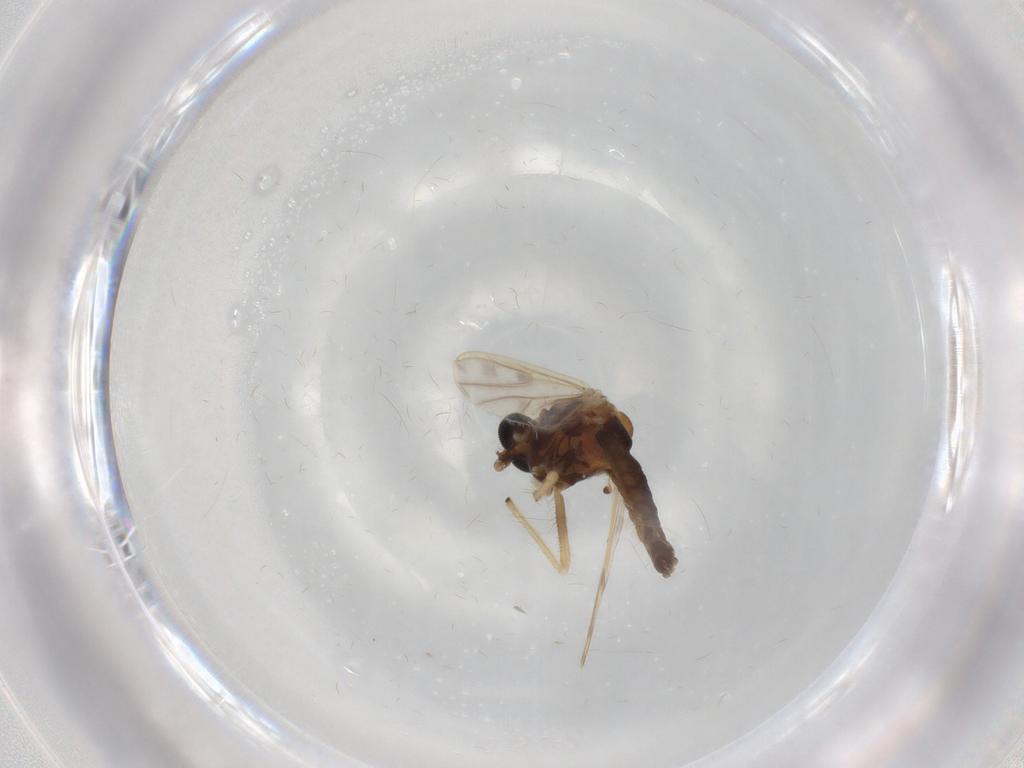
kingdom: Animalia
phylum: Arthropoda
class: Insecta
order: Diptera
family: Chironomidae
